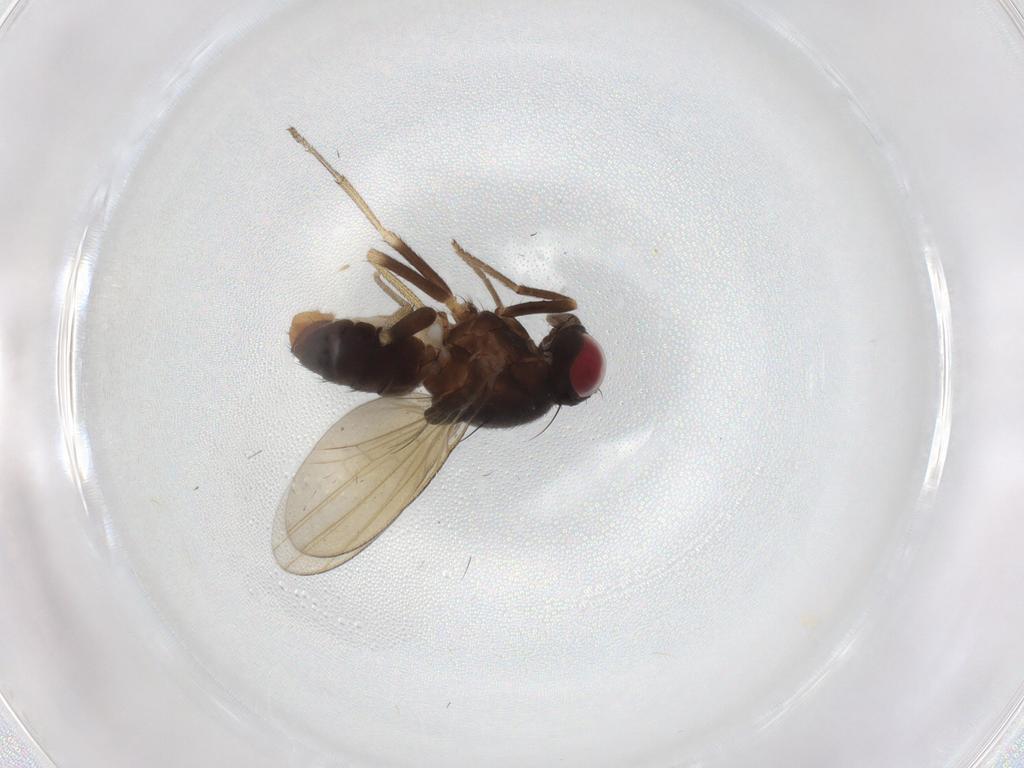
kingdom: Animalia
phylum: Arthropoda
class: Insecta
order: Diptera
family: Lauxaniidae
